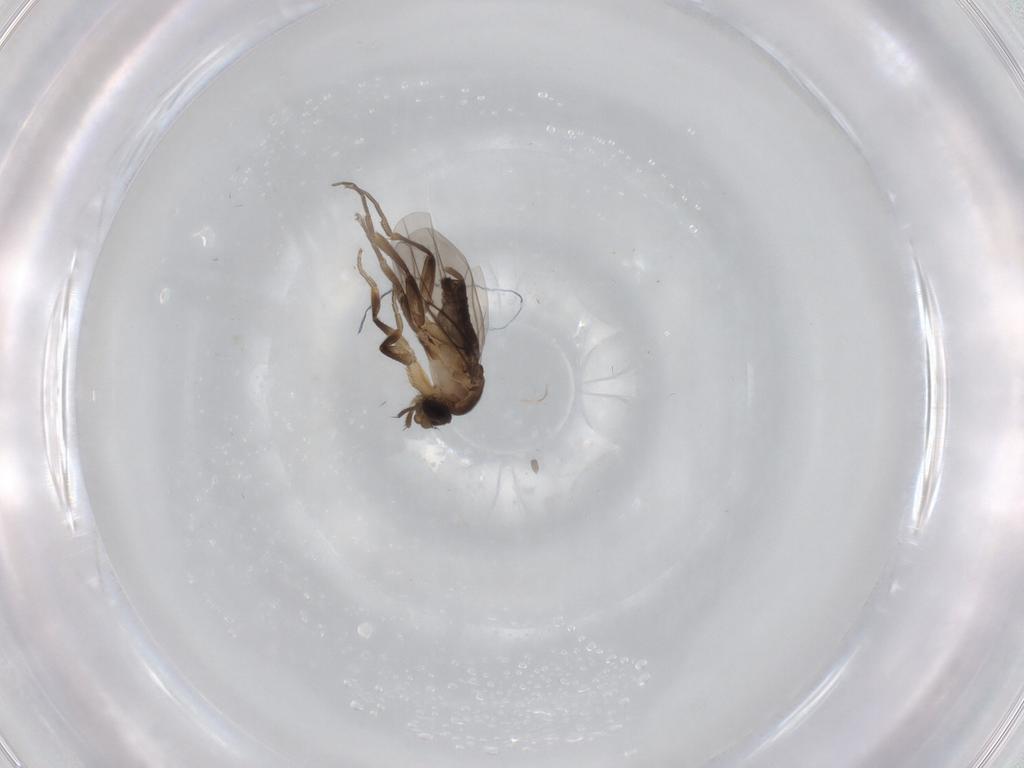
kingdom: Animalia
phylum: Arthropoda
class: Insecta
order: Diptera
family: Phoridae
